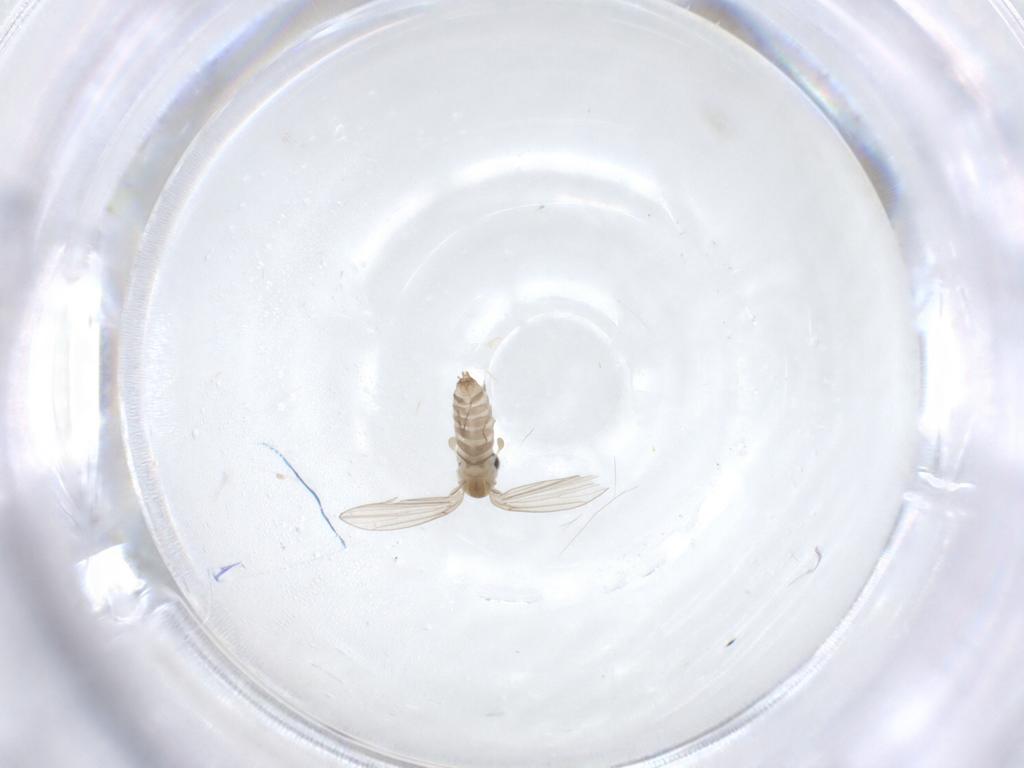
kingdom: Animalia
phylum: Arthropoda
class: Insecta
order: Diptera
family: Psychodidae
